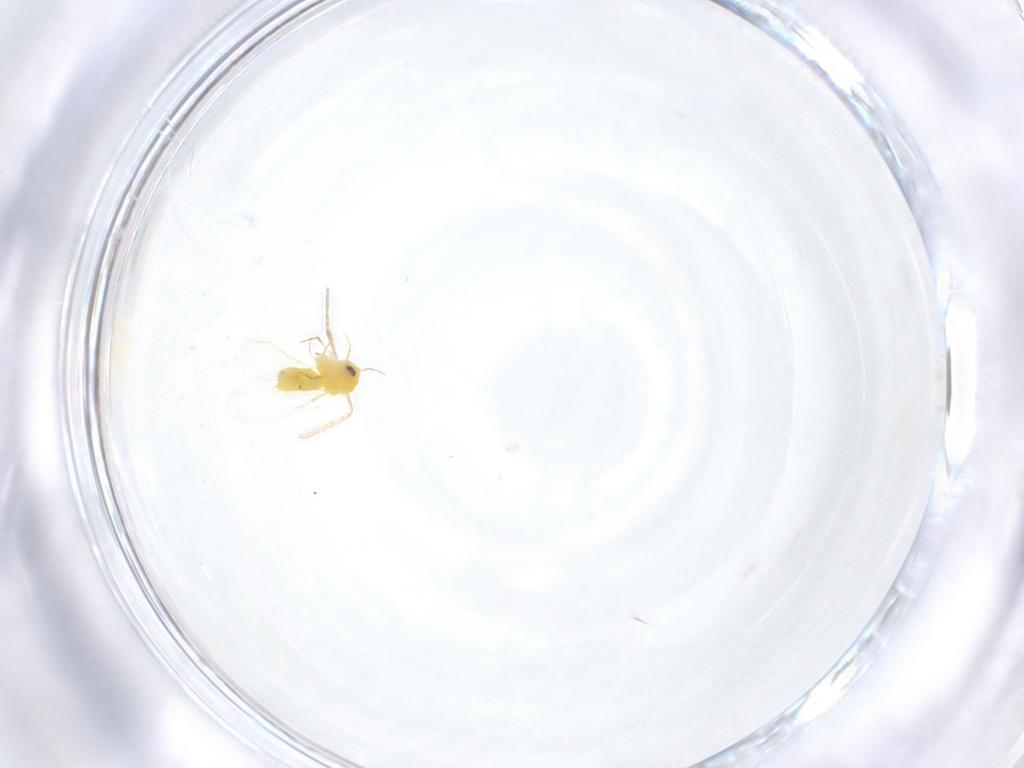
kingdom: Animalia
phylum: Arthropoda
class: Insecta
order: Diptera
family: Cecidomyiidae
